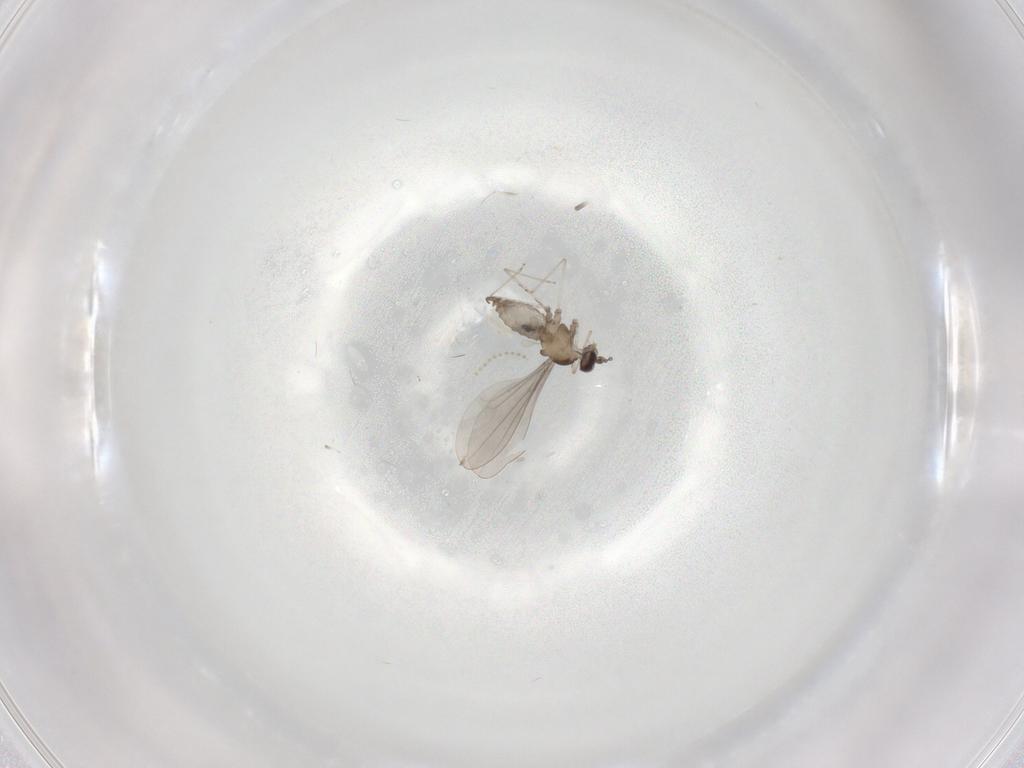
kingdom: Animalia
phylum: Arthropoda
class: Insecta
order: Diptera
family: Cecidomyiidae
